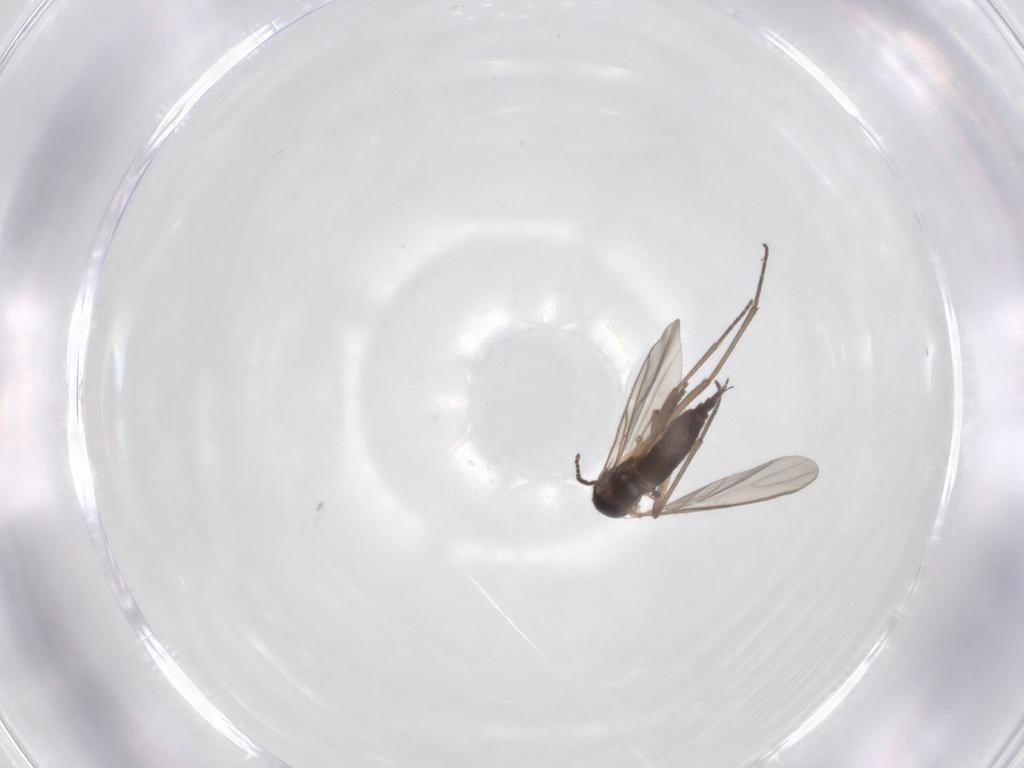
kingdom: Animalia
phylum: Arthropoda
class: Insecta
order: Diptera
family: Sciaridae
